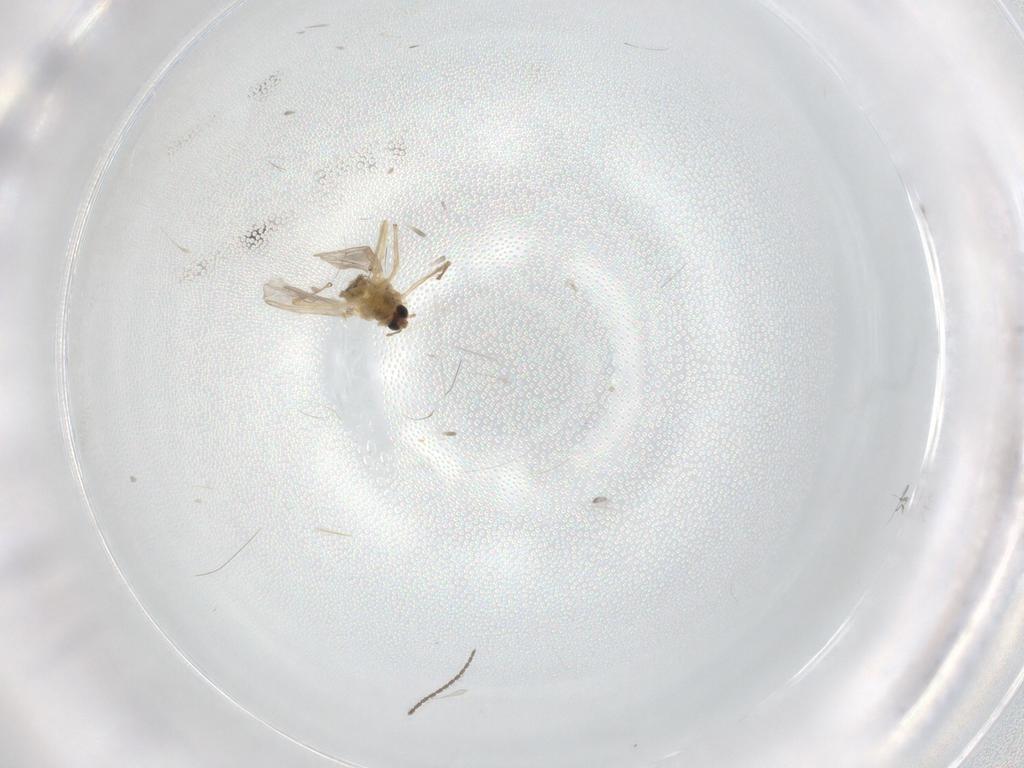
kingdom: Animalia
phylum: Arthropoda
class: Insecta
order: Diptera
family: Chironomidae
